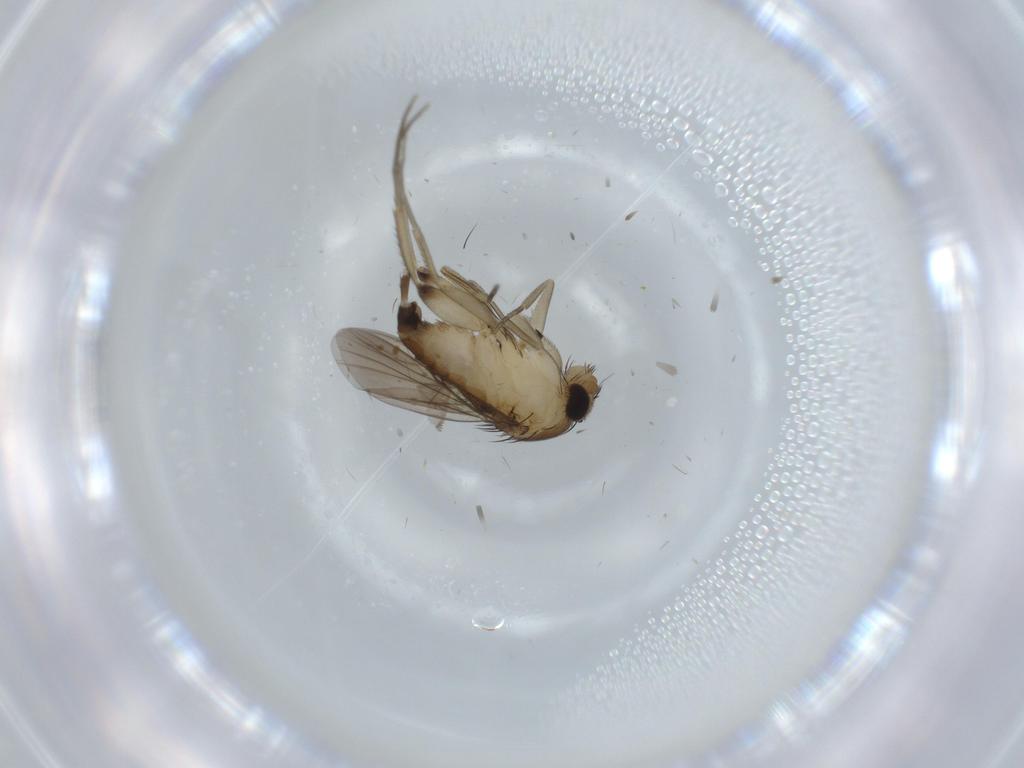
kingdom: Animalia
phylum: Arthropoda
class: Insecta
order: Diptera
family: Phoridae
